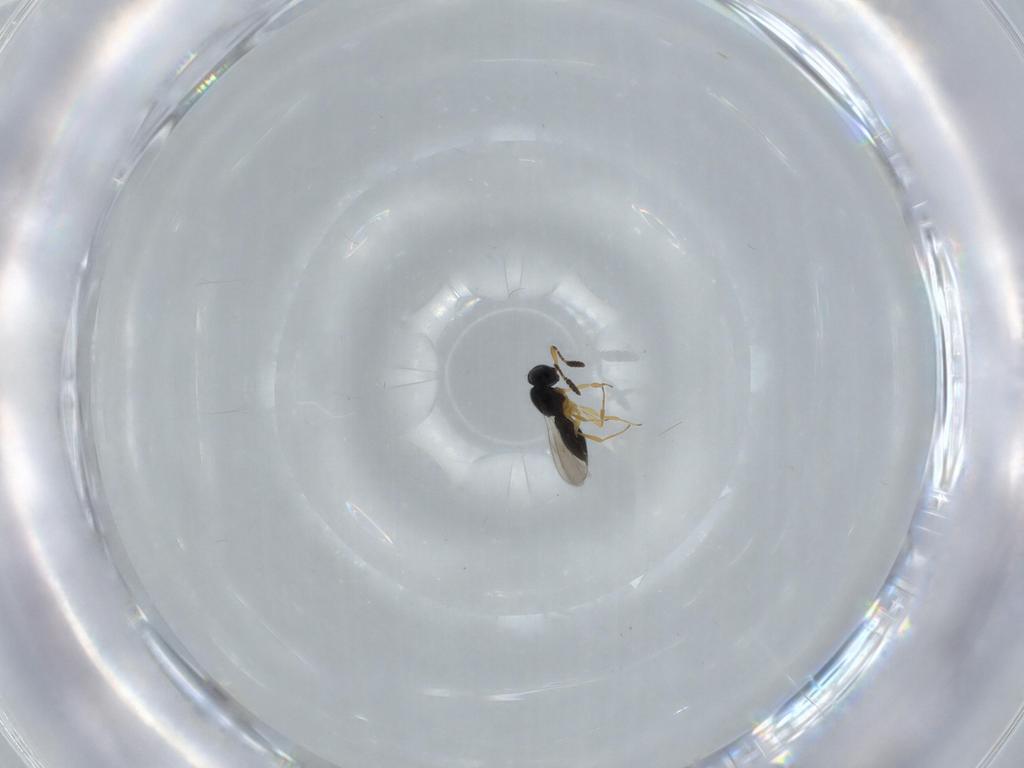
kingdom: Animalia
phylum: Arthropoda
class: Insecta
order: Hymenoptera
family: Scelionidae
